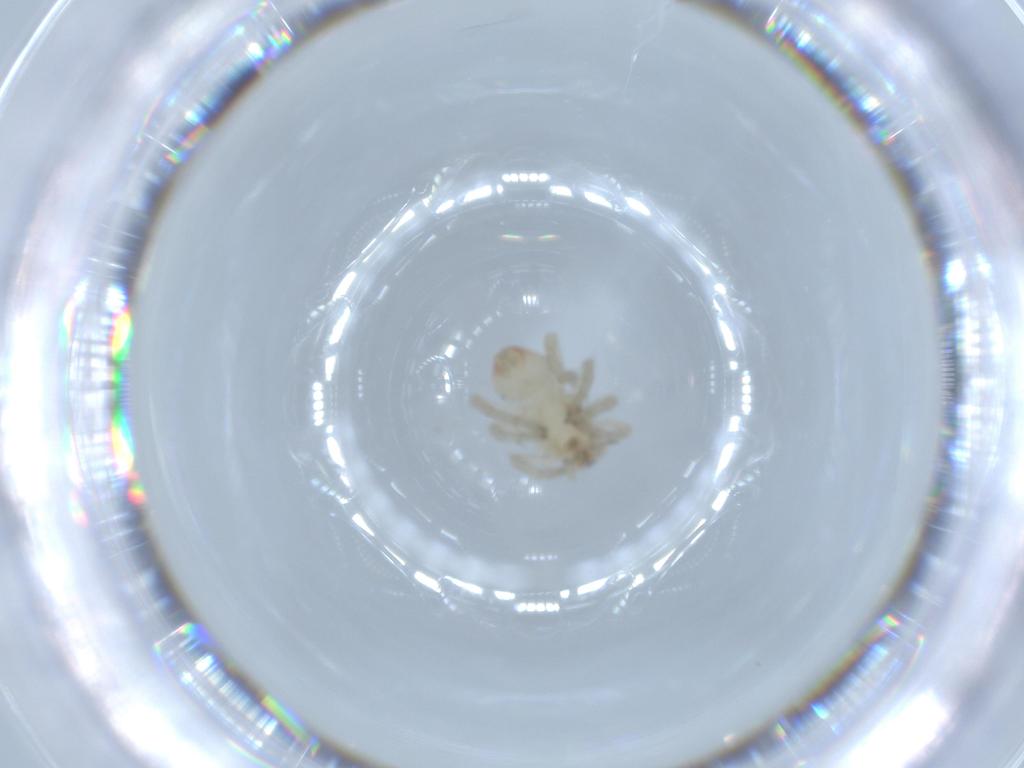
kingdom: Animalia
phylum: Arthropoda
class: Arachnida
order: Araneae
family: Clubionidae
